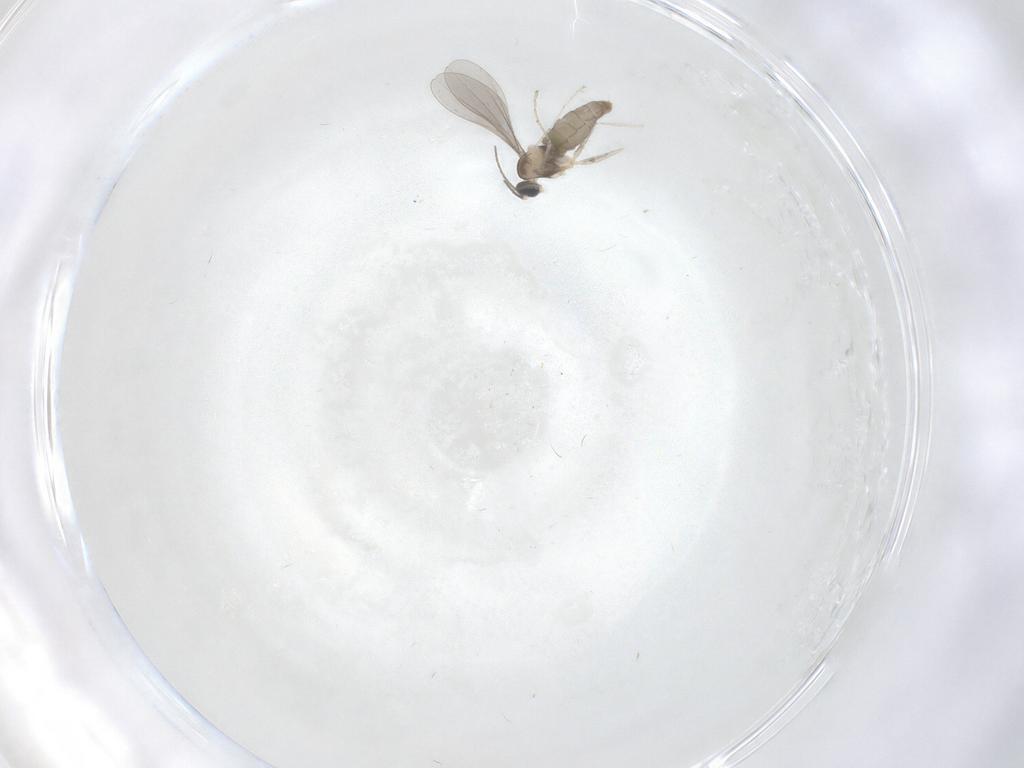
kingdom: Animalia
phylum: Arthropoda
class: Insecta
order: Diptera
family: Cecidomyiidae
